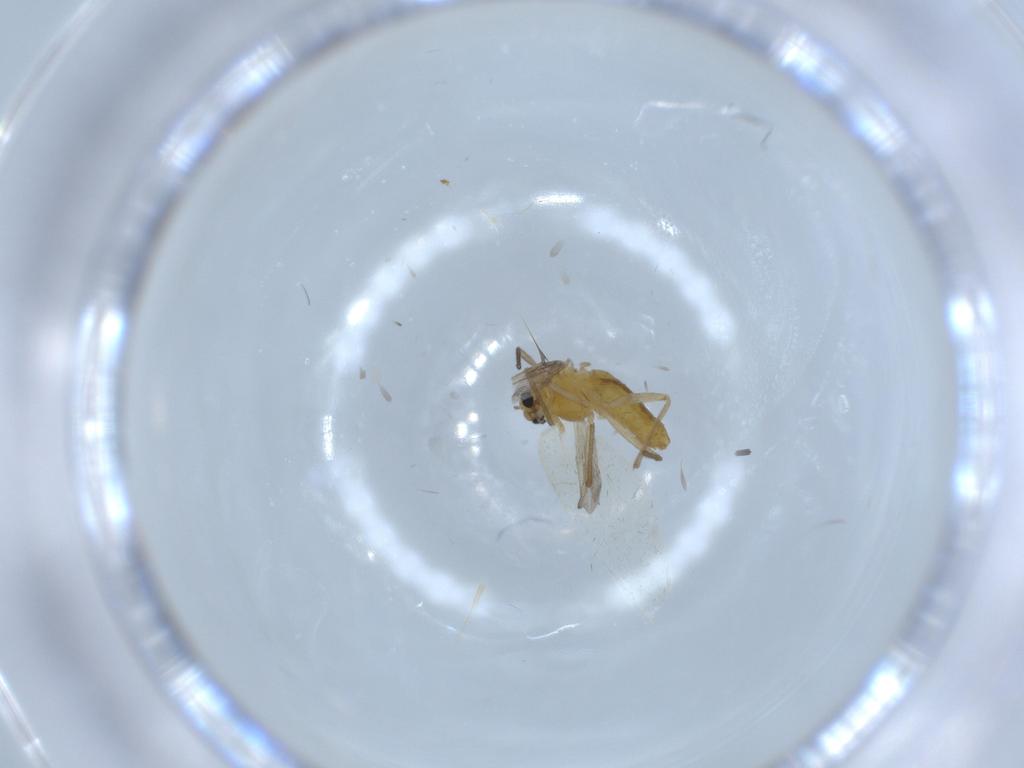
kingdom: Animalia
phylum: Arthropoda
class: Insecta
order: Diptera
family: Chironomidae
